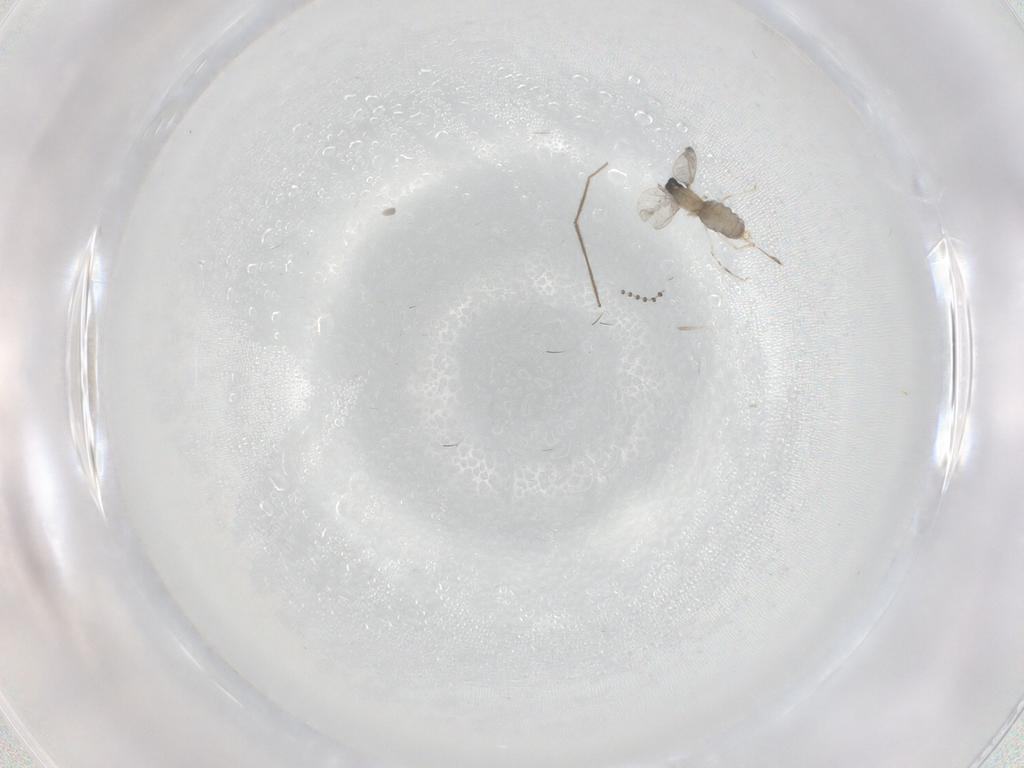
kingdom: Animalia
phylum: Arthropoda
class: Insecta
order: Diptera
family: Cecidomyiidae
